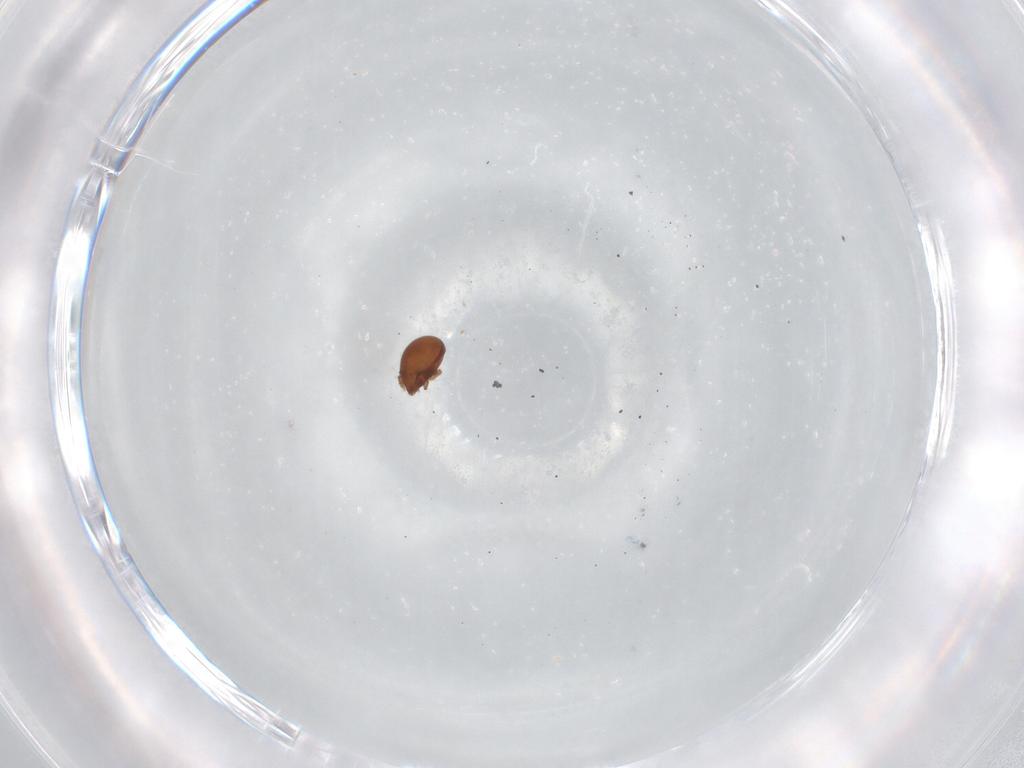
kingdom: Animalia
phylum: Arthropoda
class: Arachnida
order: Sarcoptiformes
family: Haplozetidae
